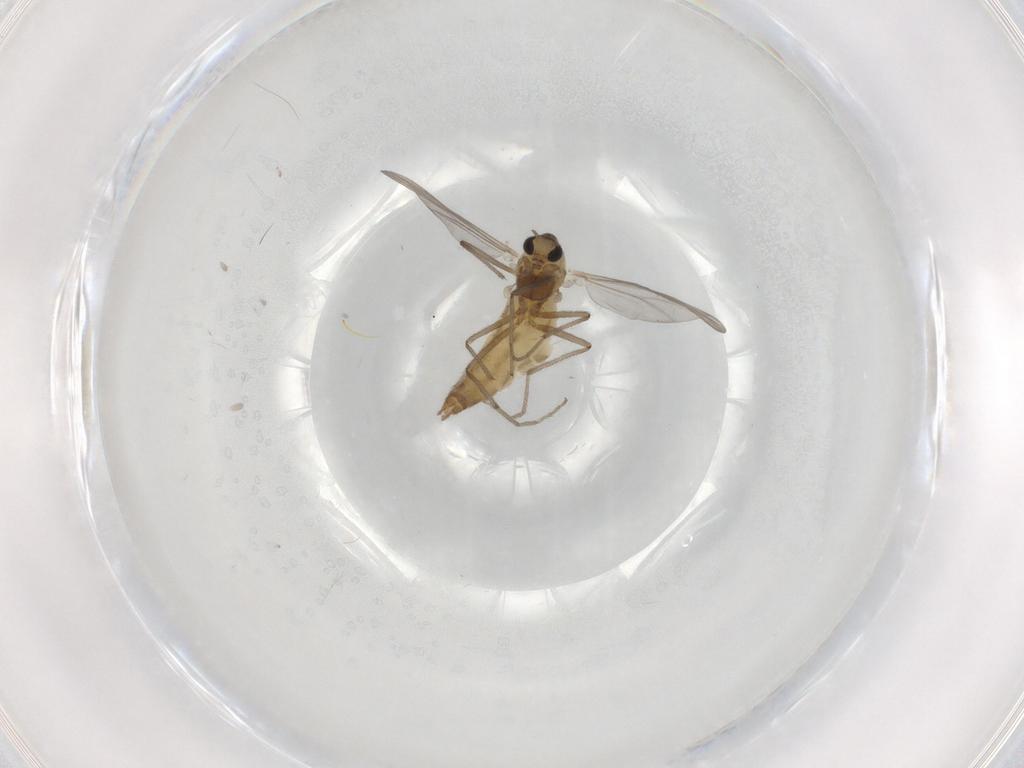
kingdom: Animalia
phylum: Arthropoda
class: Insecta
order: Diptera
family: Chironomidae
